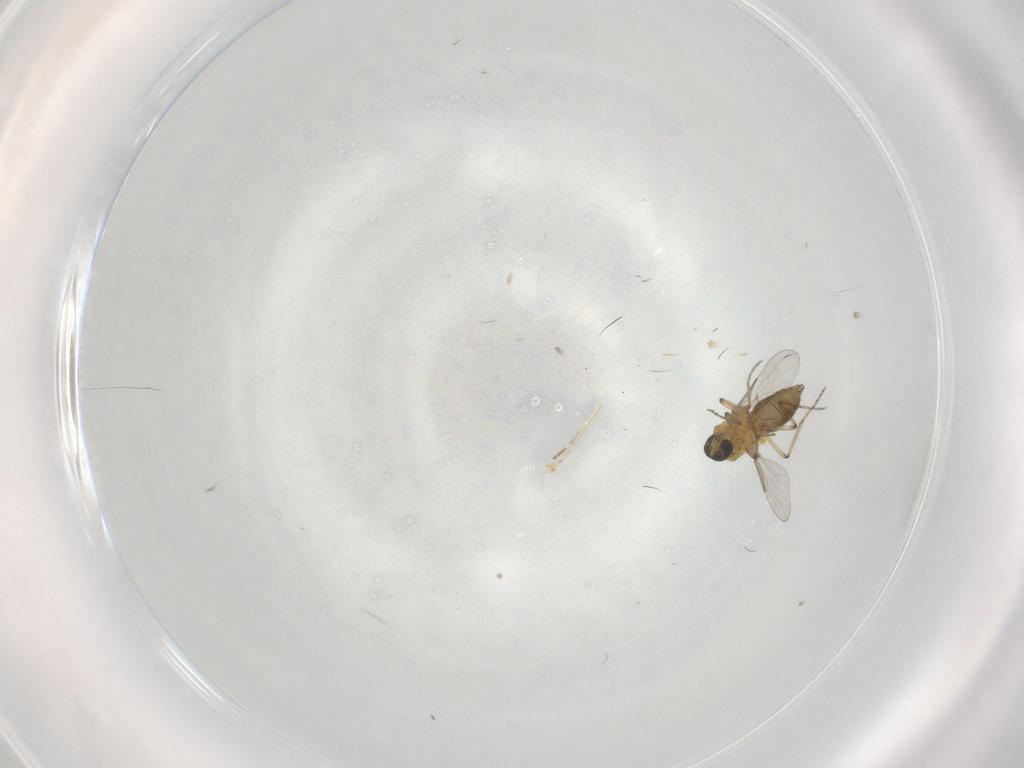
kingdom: Animalia
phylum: Arthropoda
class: Insecta
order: Diptera
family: Ceratopogonidae
